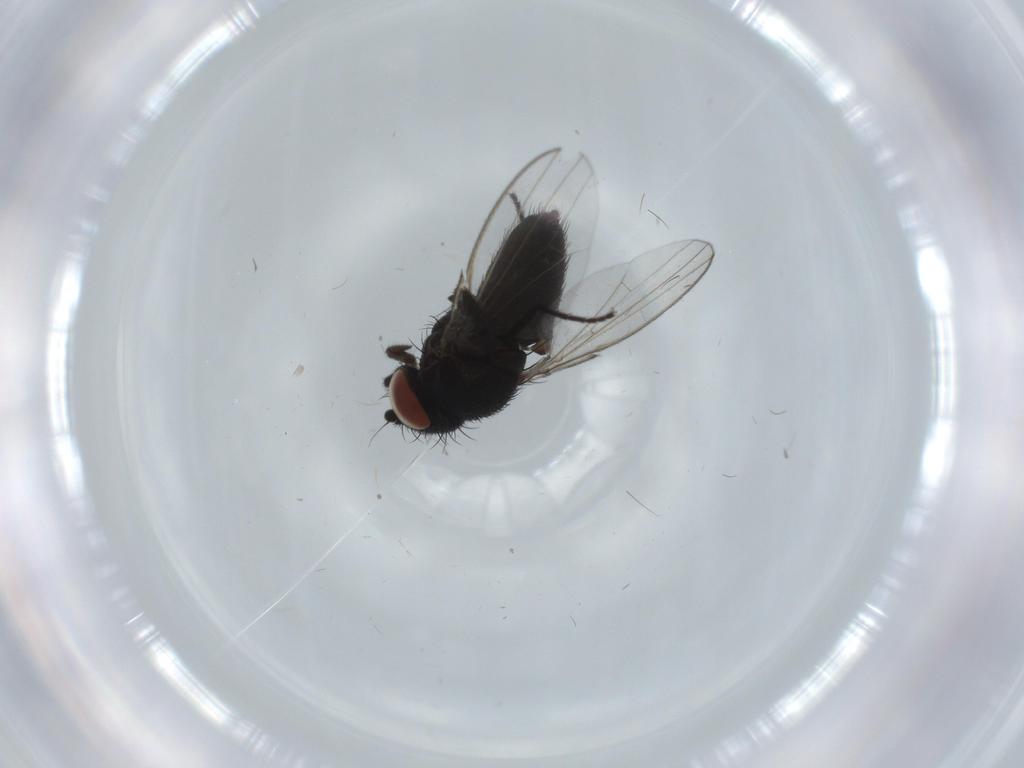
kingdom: Animalia
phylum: Arthropoda
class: Insecta
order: Diptera
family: Milichiidae
